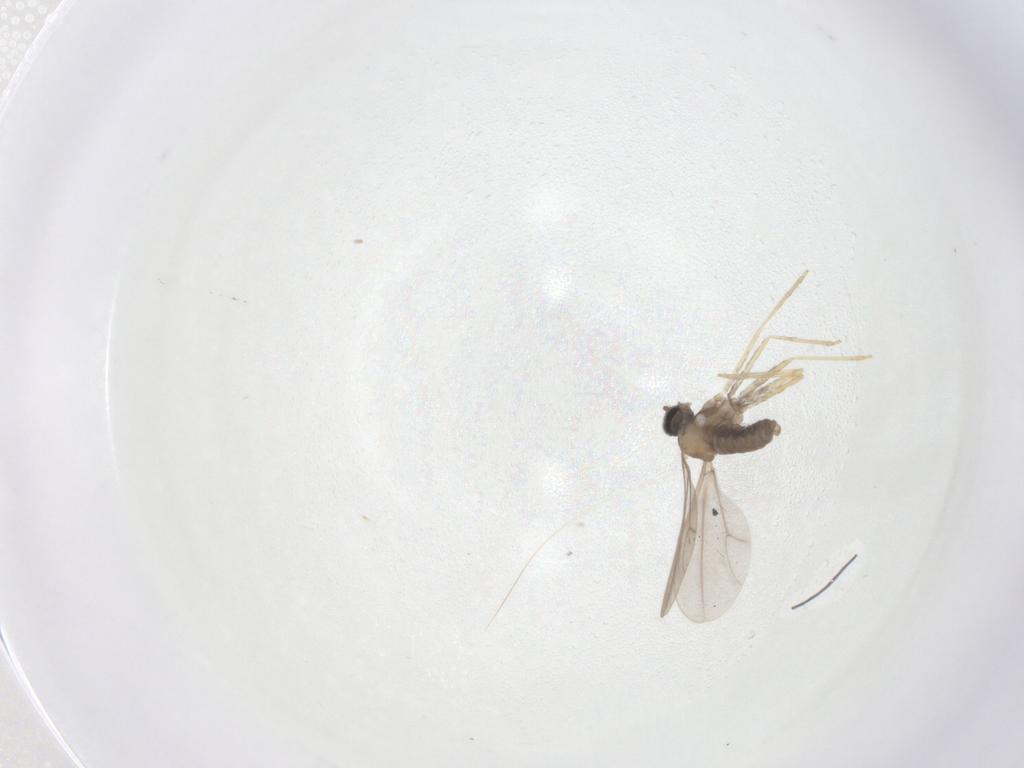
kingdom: Animalia
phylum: Arthropoda
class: Insecta
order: Diptera
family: Cecidomyiidae
